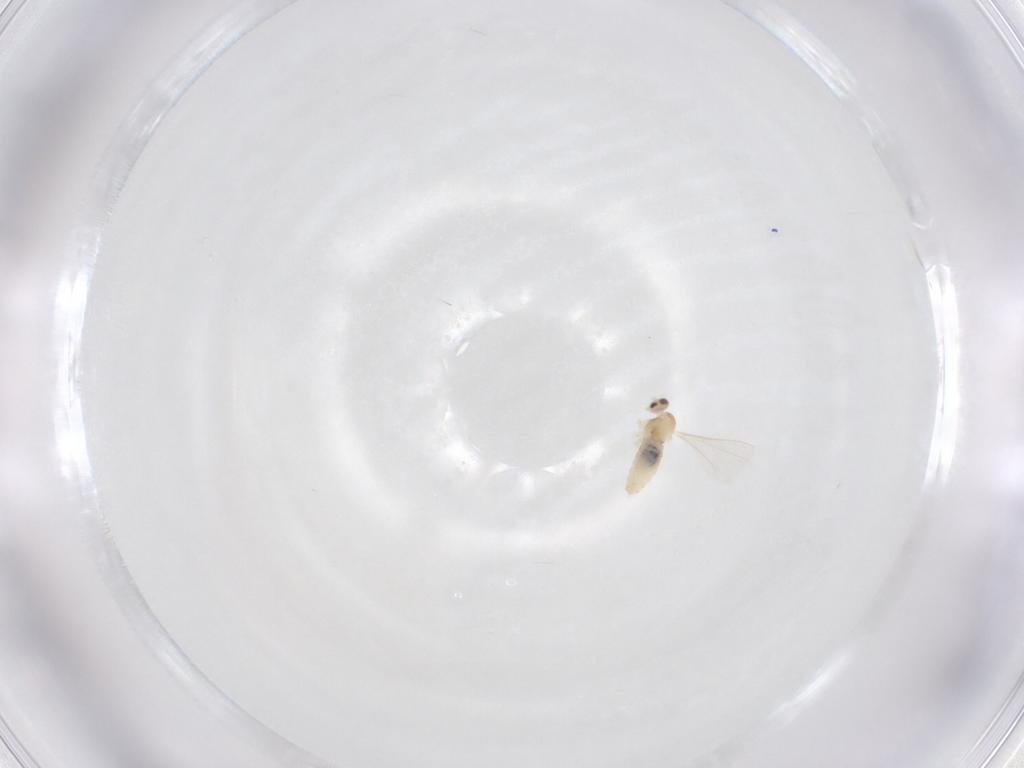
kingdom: Animalia
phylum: Arthropoda
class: Insecta
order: Diptera
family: Cecidomyiidae
